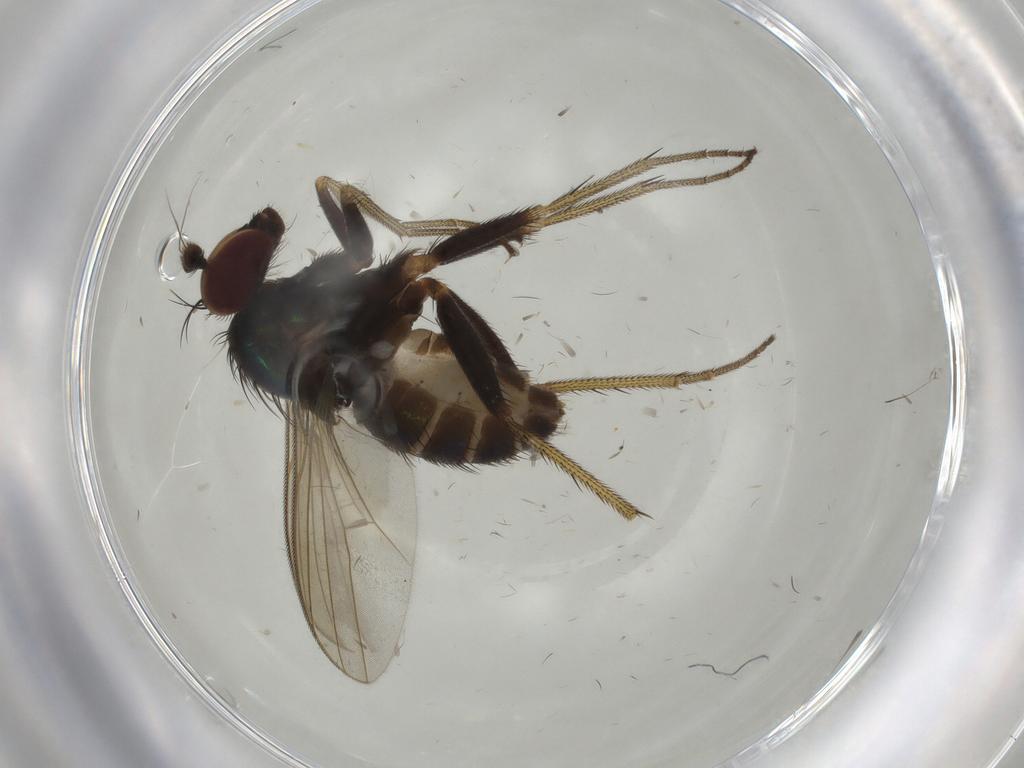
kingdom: Animalia
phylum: Arthropoda
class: Insecta
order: Diptera
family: Dolichopodidae
